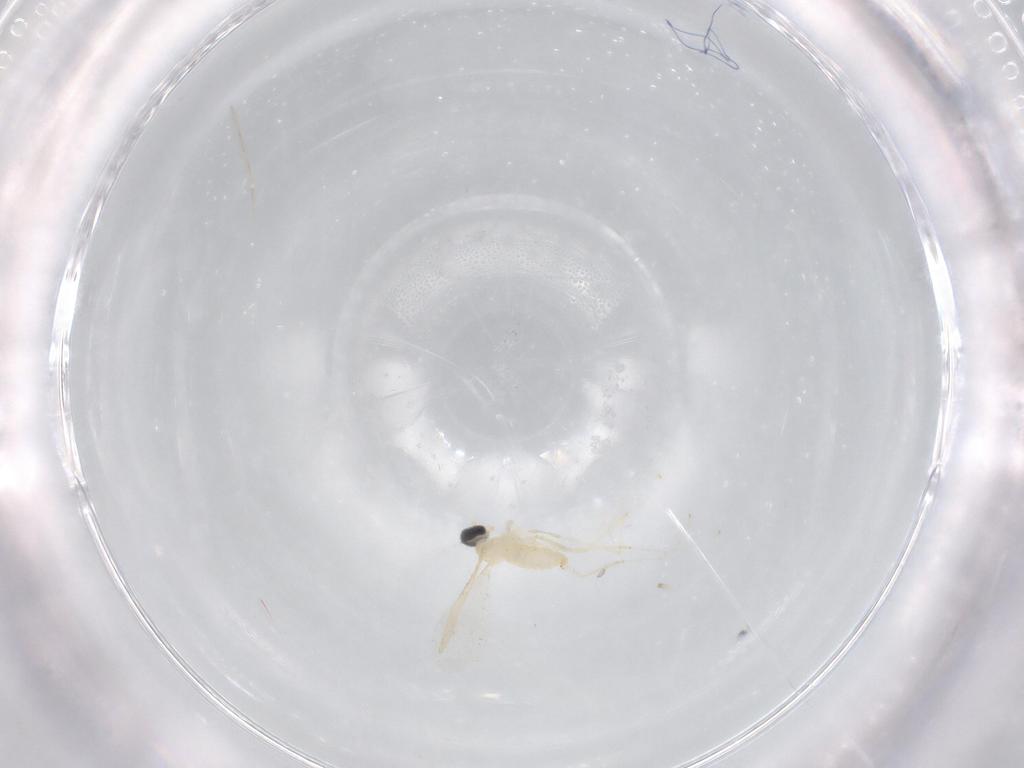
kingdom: Animalia
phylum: Arthropoda
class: Insecta
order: Diptera
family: Cecidomyiidae
